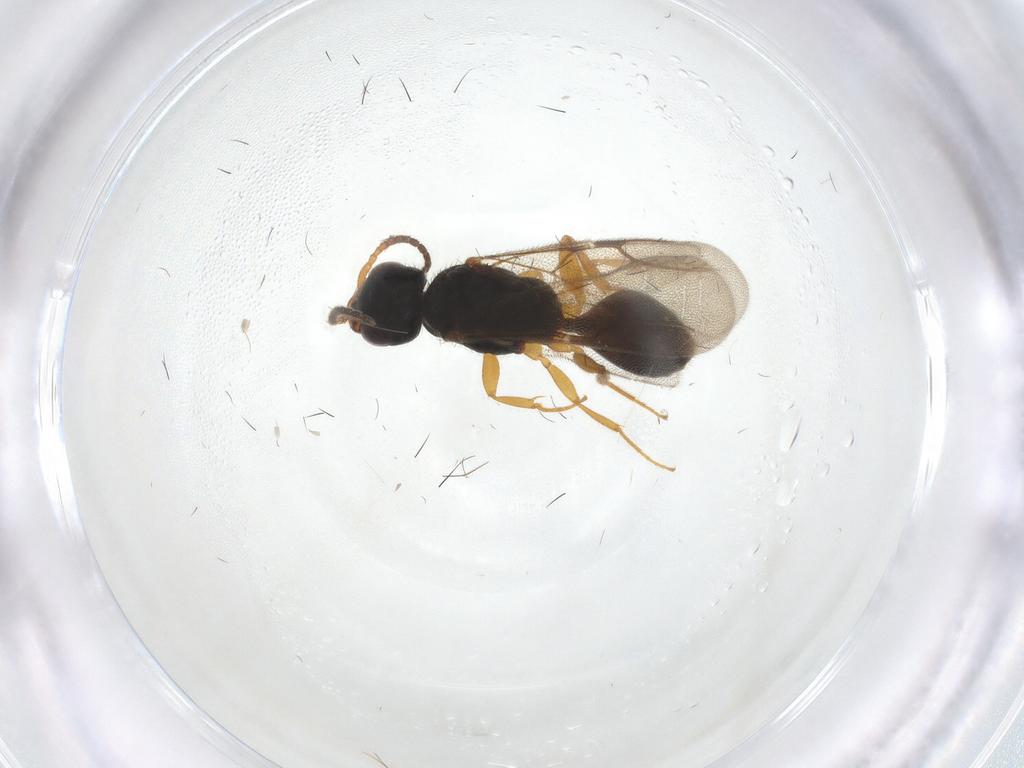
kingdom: Animalia
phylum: Arthropoda
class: Insecta
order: Hymenoptera
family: Bethylidae
